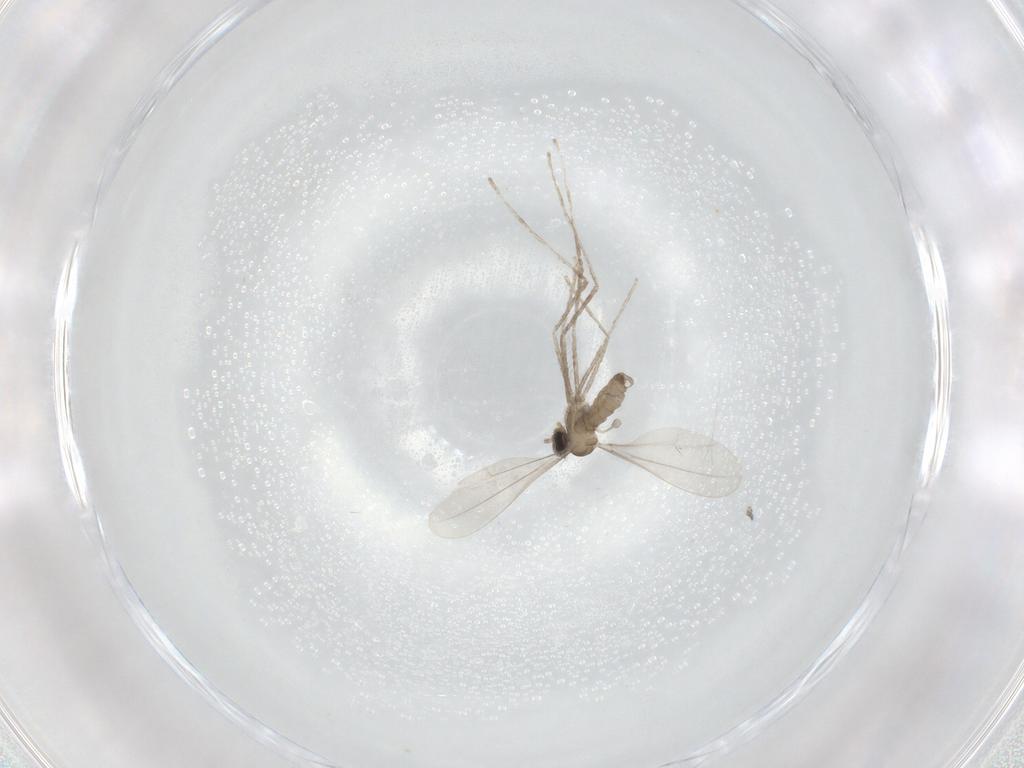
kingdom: Animalia
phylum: Arthropoda
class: Insecta
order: Diptera
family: Cecidomyiidae
